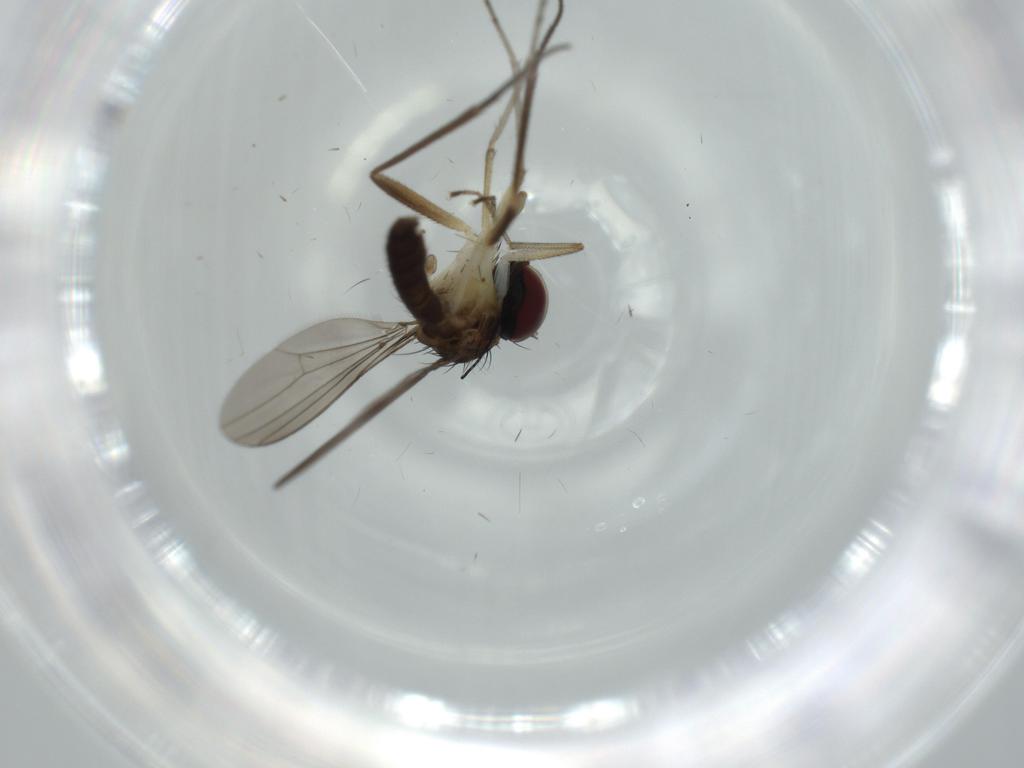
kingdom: Animalia
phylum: Arthropoda
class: Insecta
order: Diptera
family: Dolichopodidae
